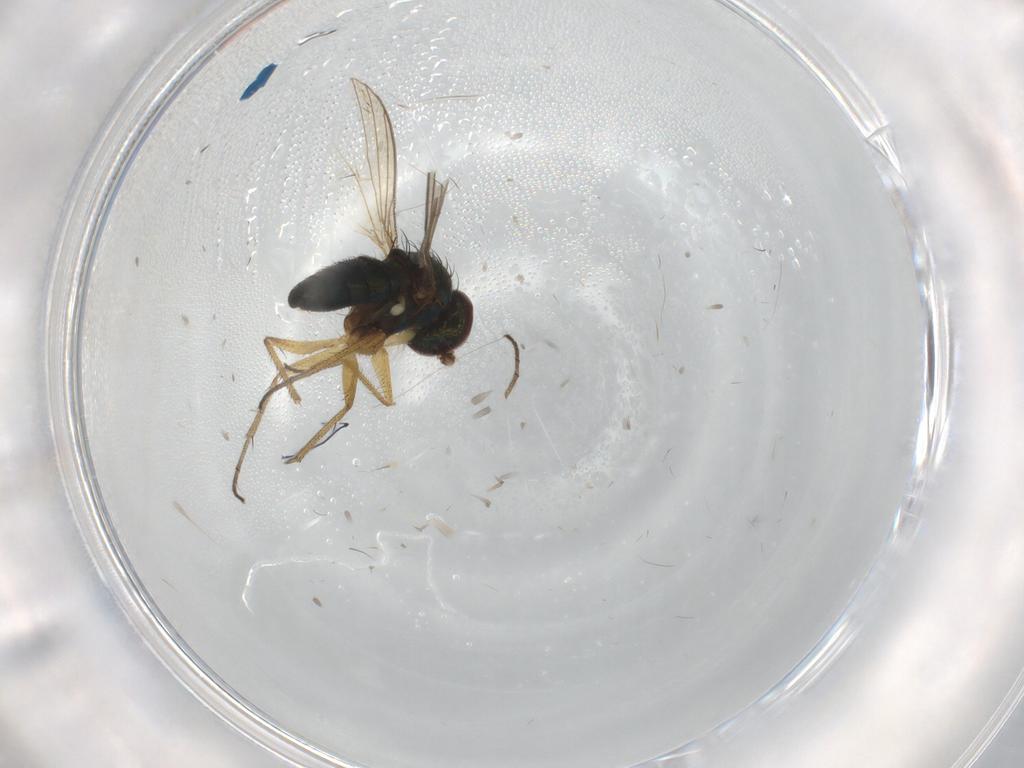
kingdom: Animalia
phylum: Arthropoda
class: Insecta
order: Diptera
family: Dolichopodidae
